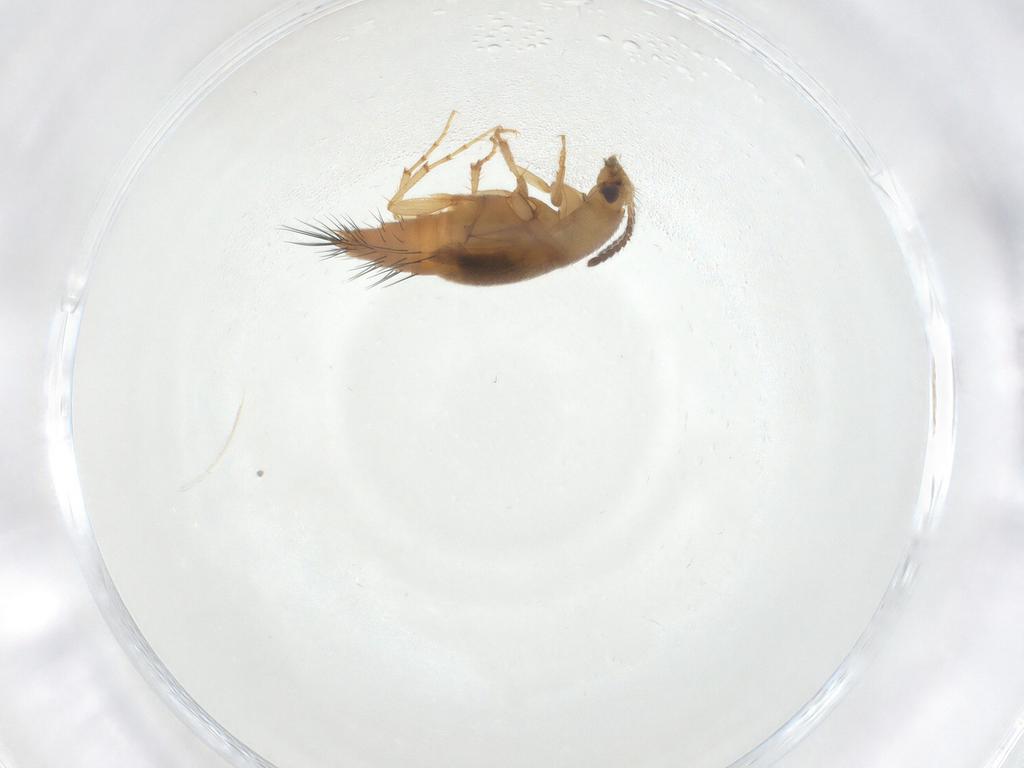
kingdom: Animalia
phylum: Arthropoda
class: Insecta
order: Coleoptera
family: Staphylinidae
